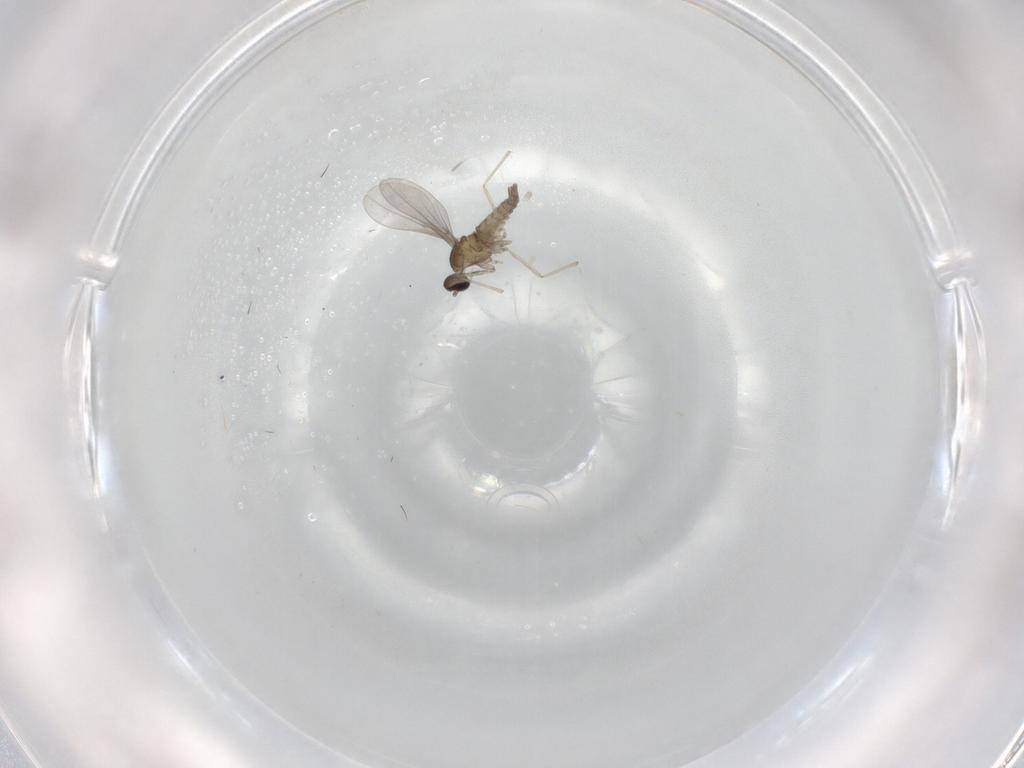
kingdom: Animalia
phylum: Arthropoda
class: Insecta
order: Diptera
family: Cecidomyiidae
